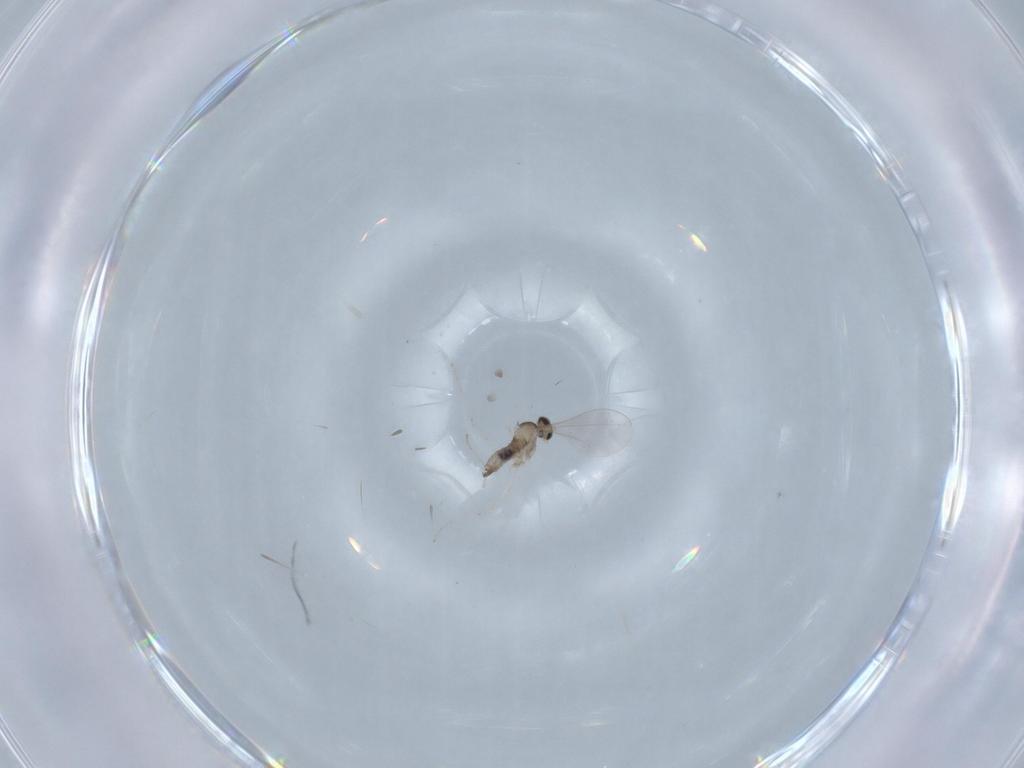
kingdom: Animalia
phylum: Arthropoda
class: Insecta
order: Diptera
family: Cecidomyiidae
